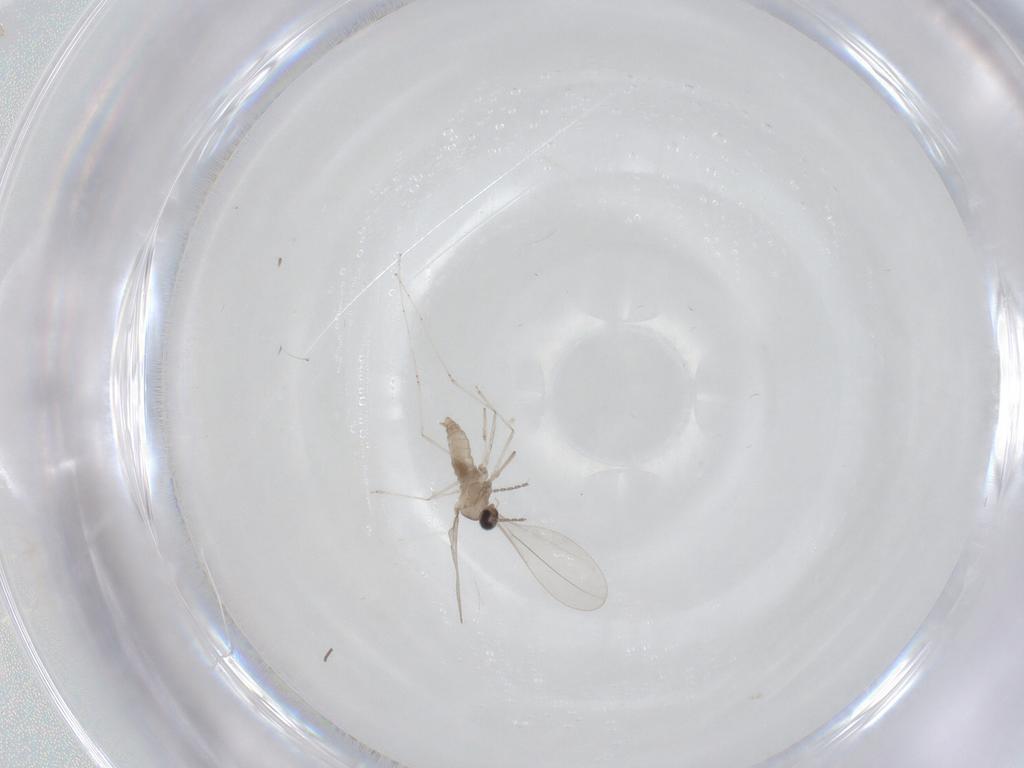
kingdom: Animalia
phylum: Arthropoda
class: Insecta
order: Diptera
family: Cecidomyiidae
